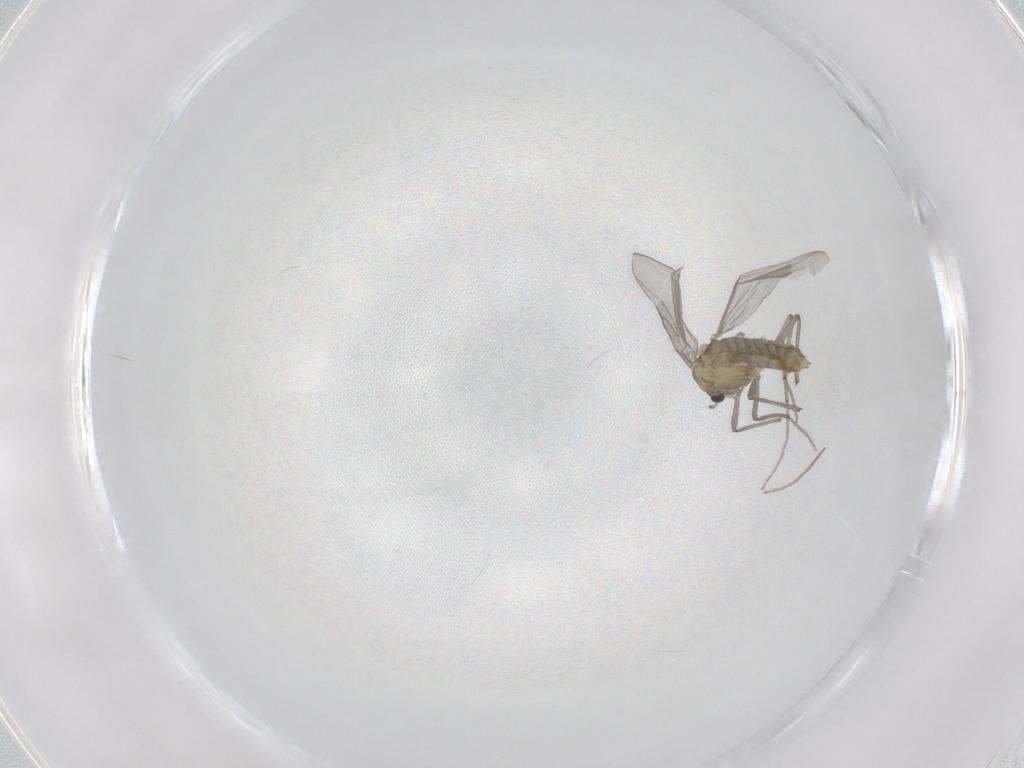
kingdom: Animalia
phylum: Arthropoda
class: Insecta
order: Diptera
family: Chironomidae
